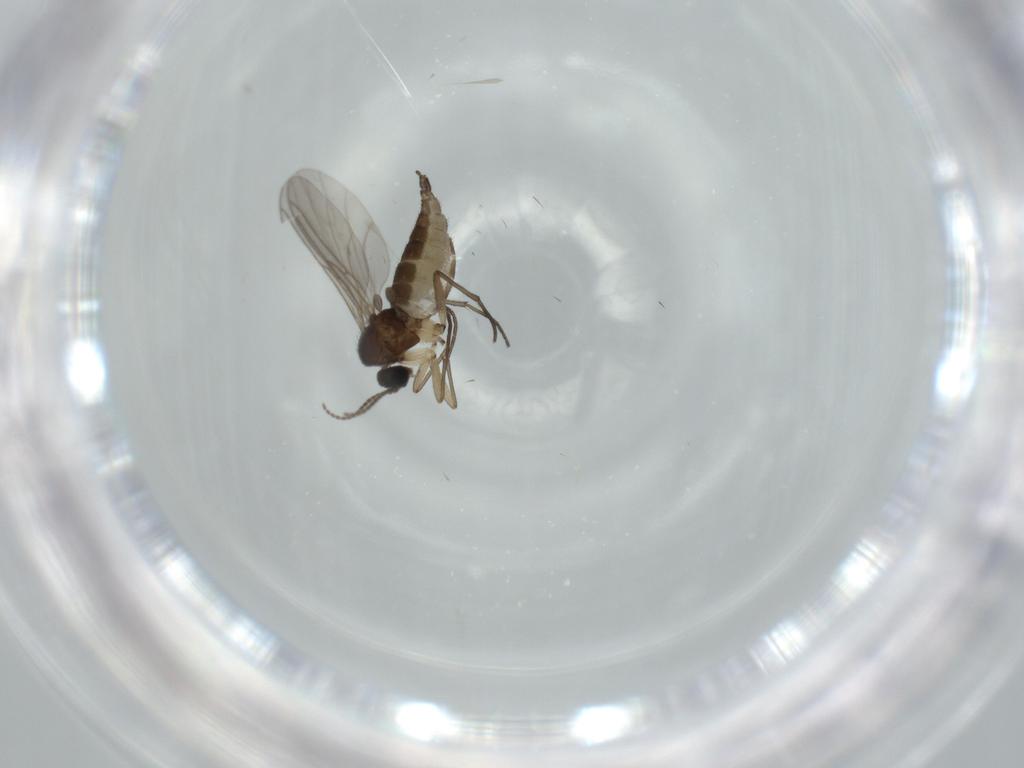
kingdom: Animalia
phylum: Arthropoda
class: Insecta
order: Diptera
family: Sciaridae
